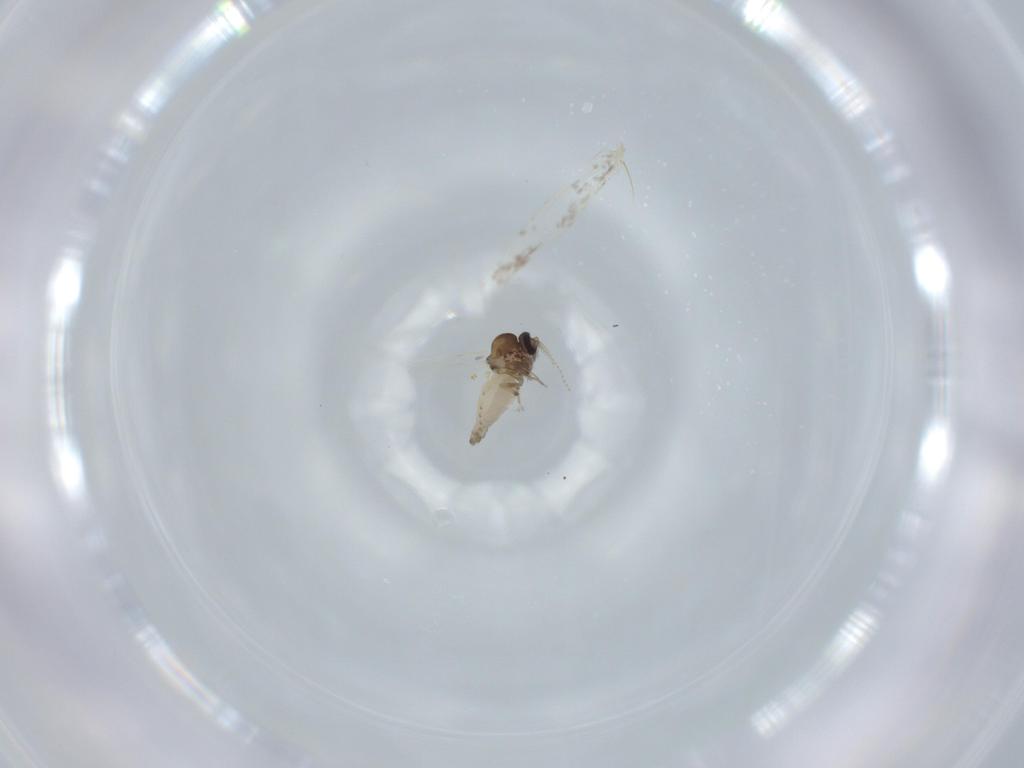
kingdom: Animalia
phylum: Arthropoda
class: Insecta
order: Diptera
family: Ceratopogonidae
